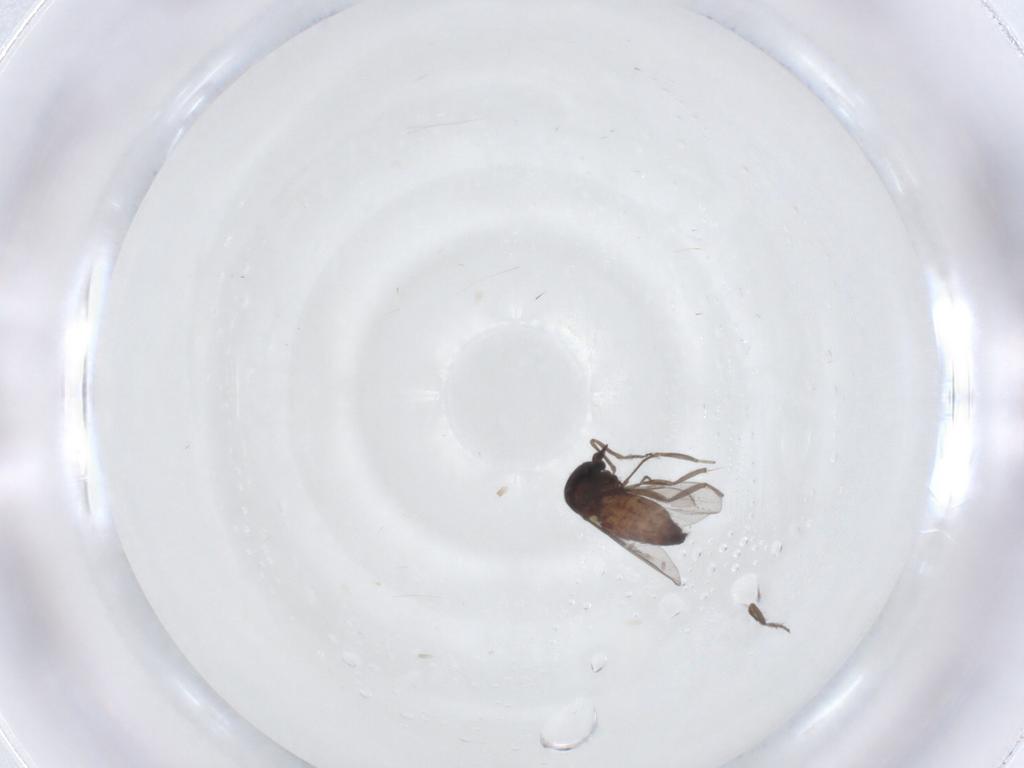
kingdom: Animalia
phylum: Arthropoda
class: Insecta
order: Diptera
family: Ceratopogonidae
